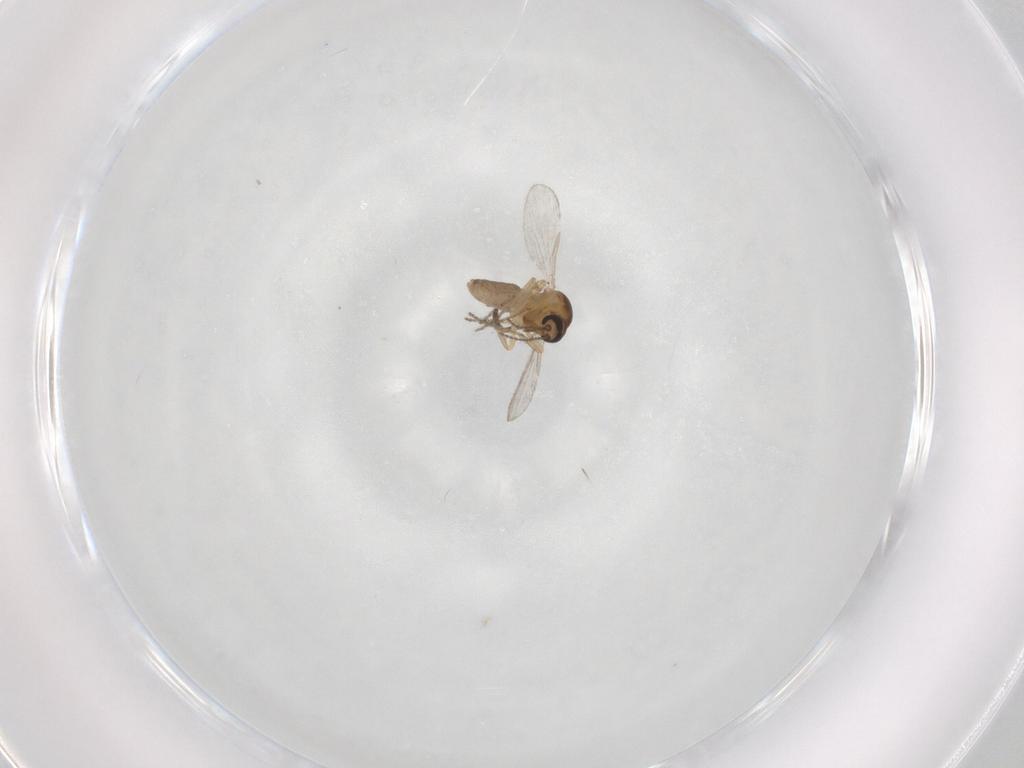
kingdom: Animalia
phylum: Arthropoda
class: Insecta
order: Diptera
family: Ceratopogonidae
